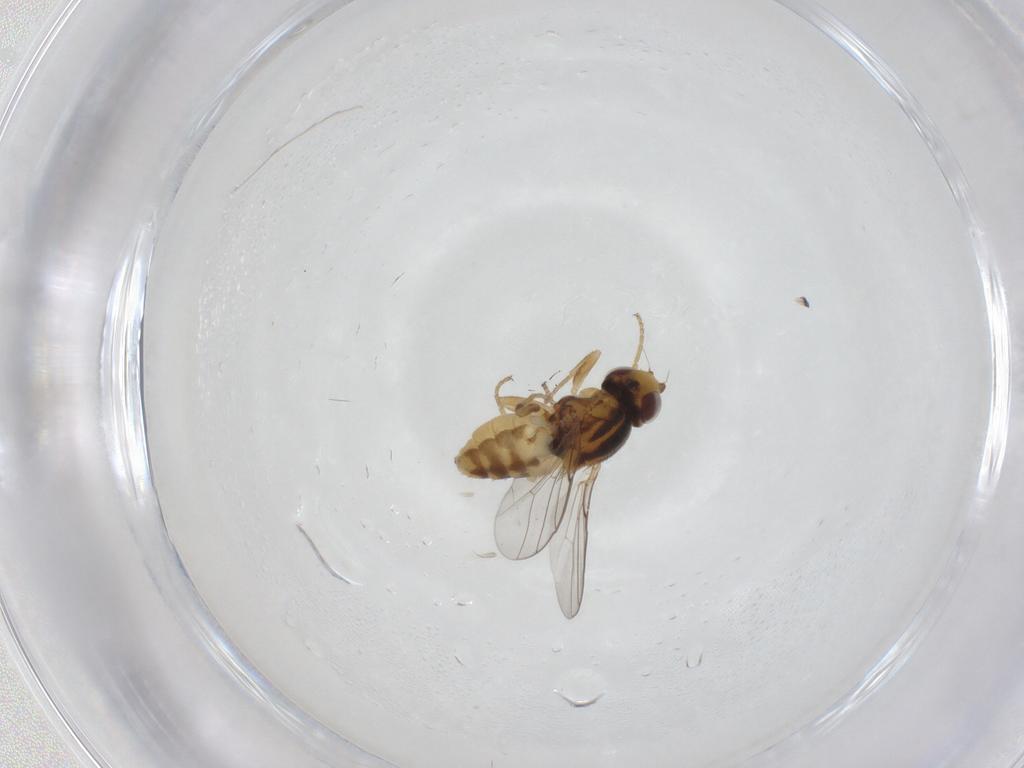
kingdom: Animalia
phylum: Arthropoda
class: Insecta
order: Diptera
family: Chloropidae
